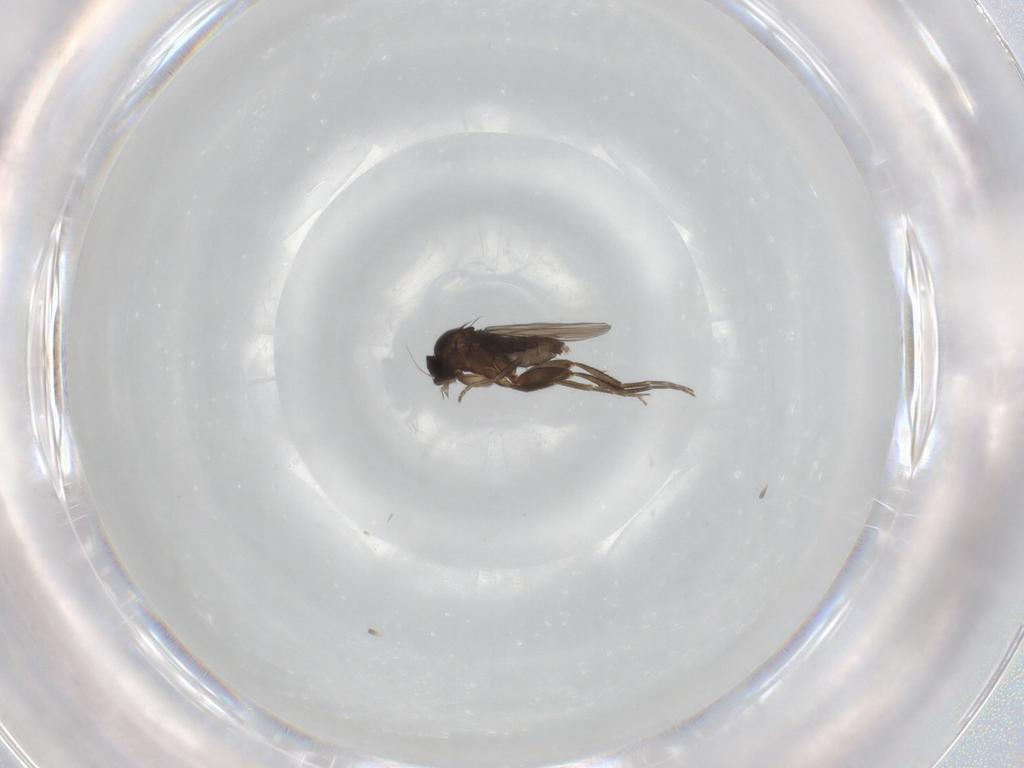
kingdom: Animalia
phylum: Arthropoda
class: Insecta
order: Diptera
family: Phoridae
